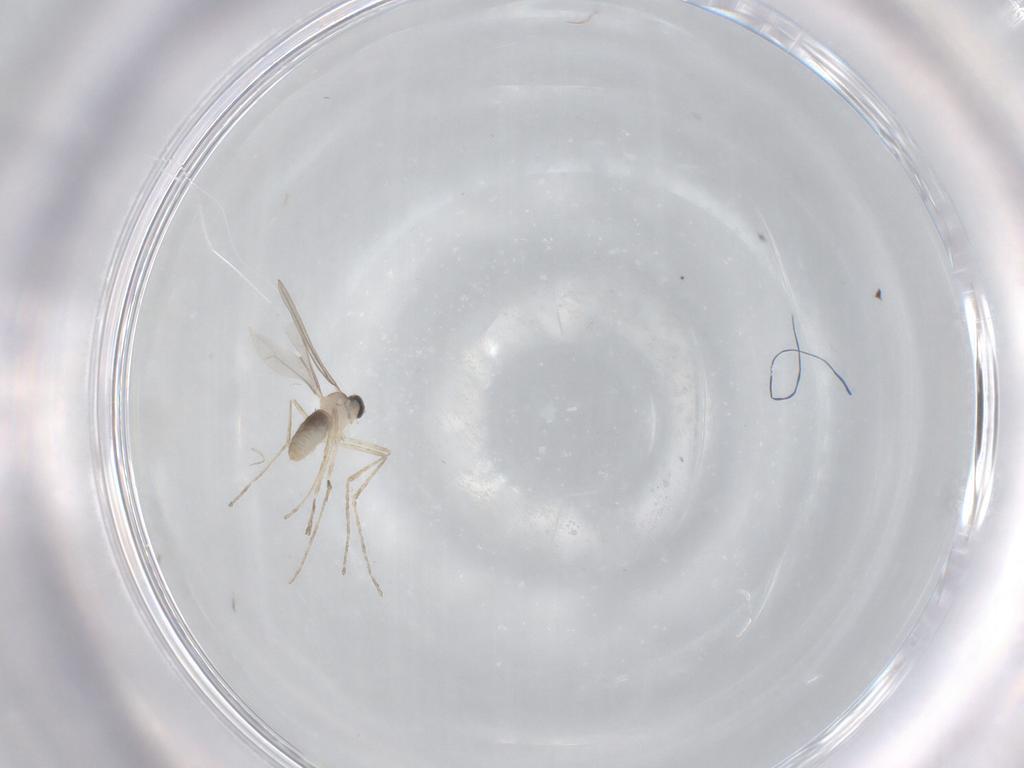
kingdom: Animalia
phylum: Arthropoda
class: Insecta
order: Diptera
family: Cecidomyiidae
